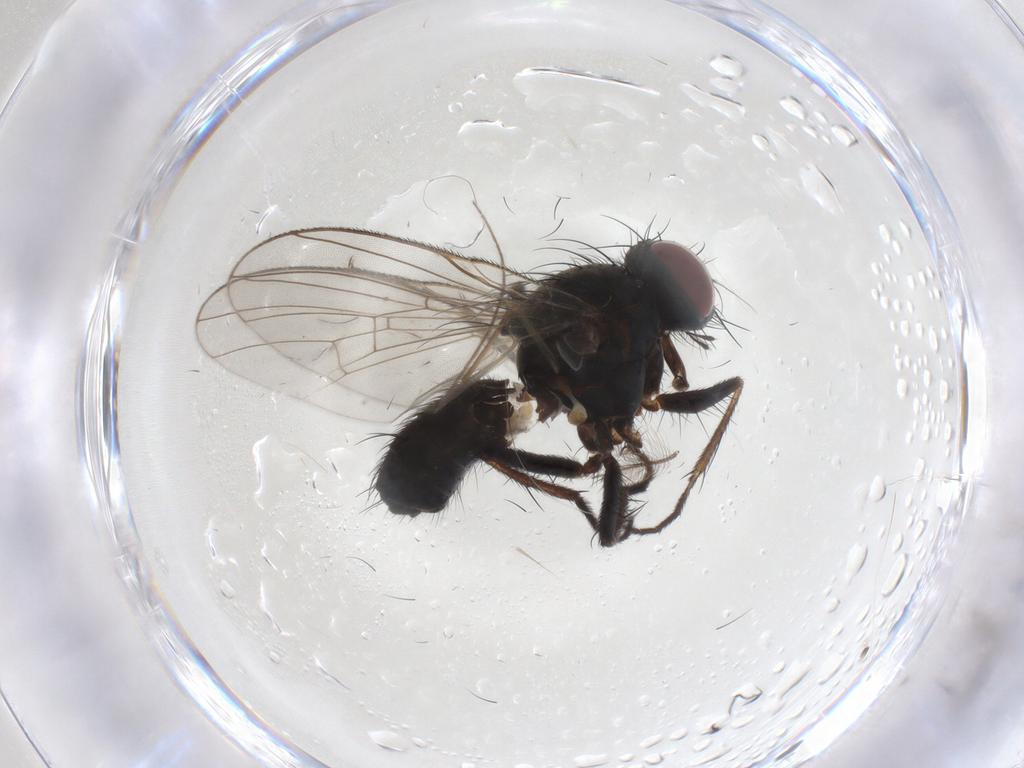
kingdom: Animalia
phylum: Arthropoda
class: Insecta
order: Diptera
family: Muscidae
